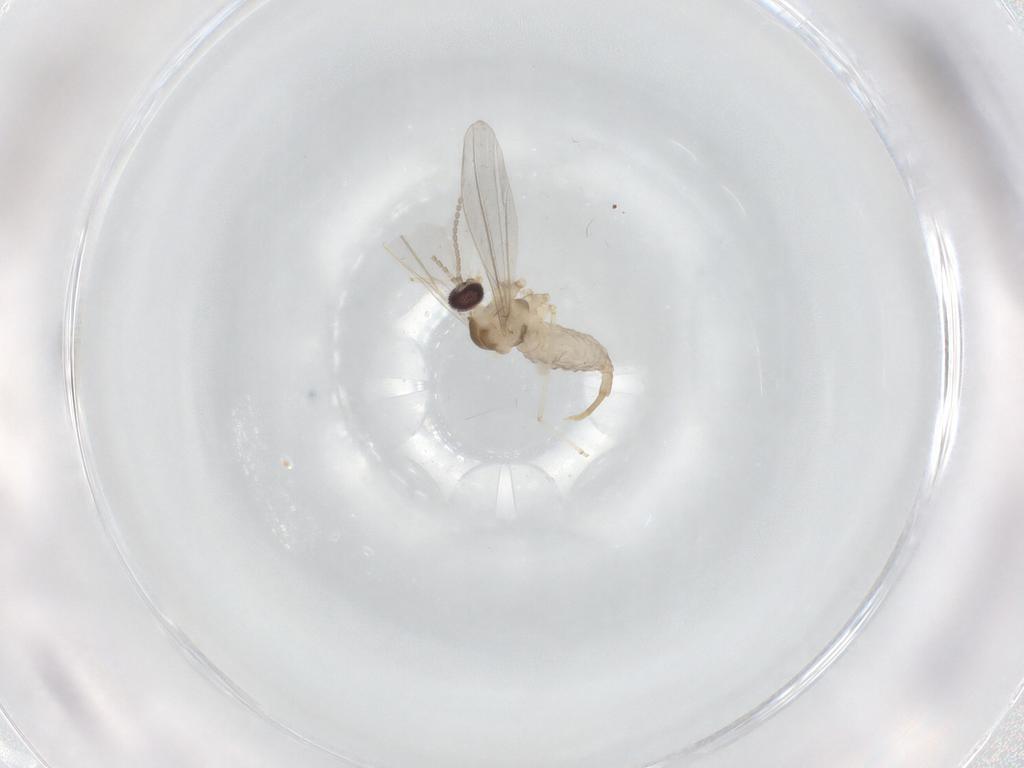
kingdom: Animalia
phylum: Arthropoda
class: Insecta
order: Diptera
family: Cecidomyiidae
